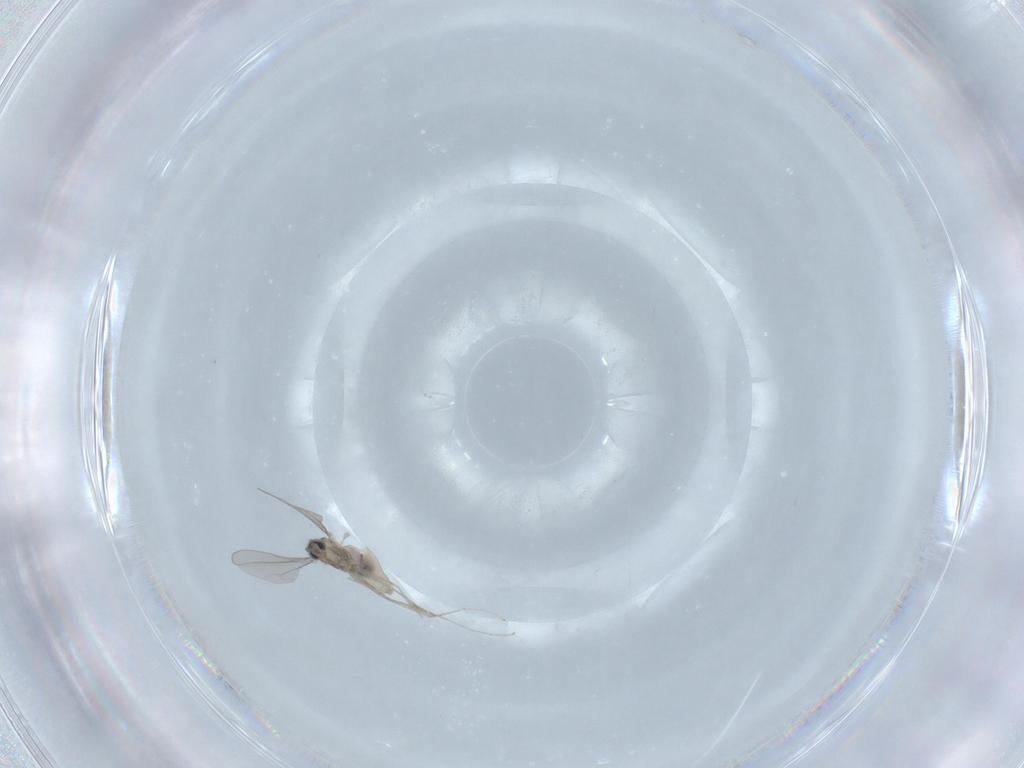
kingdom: Animalia
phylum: Arthropoda
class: Insecta
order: Diptera
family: Cecidomyiidae
